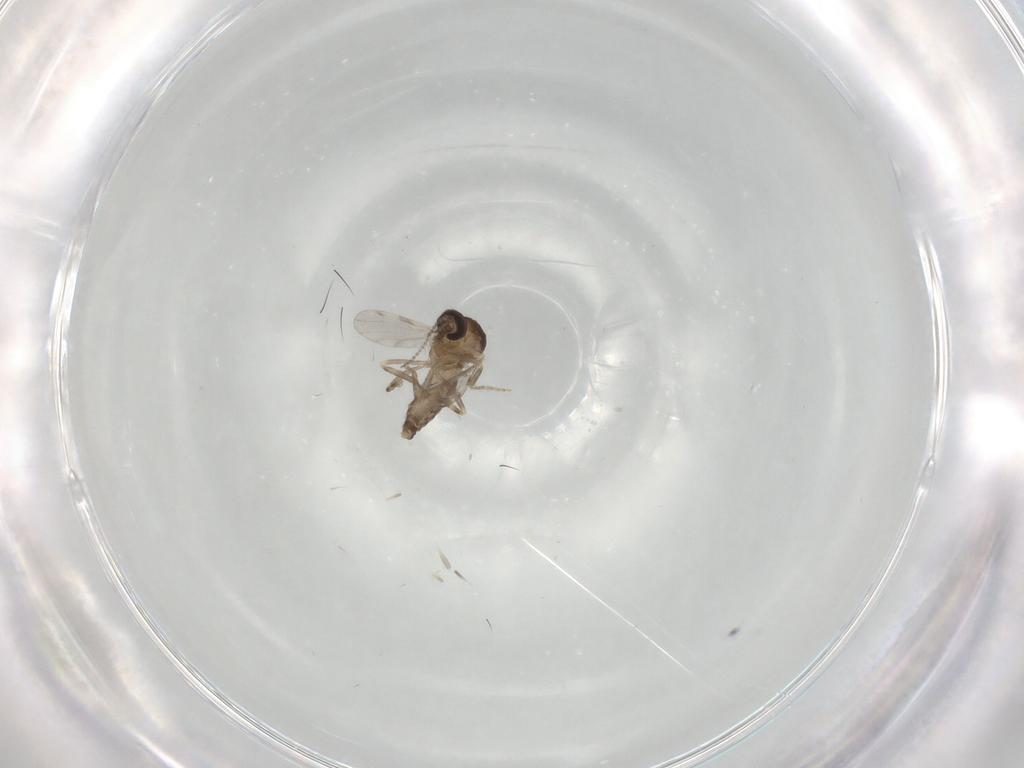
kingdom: Animalia
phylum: Arthropoda
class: Insecta
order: Diptera
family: Ceratopogonidae
